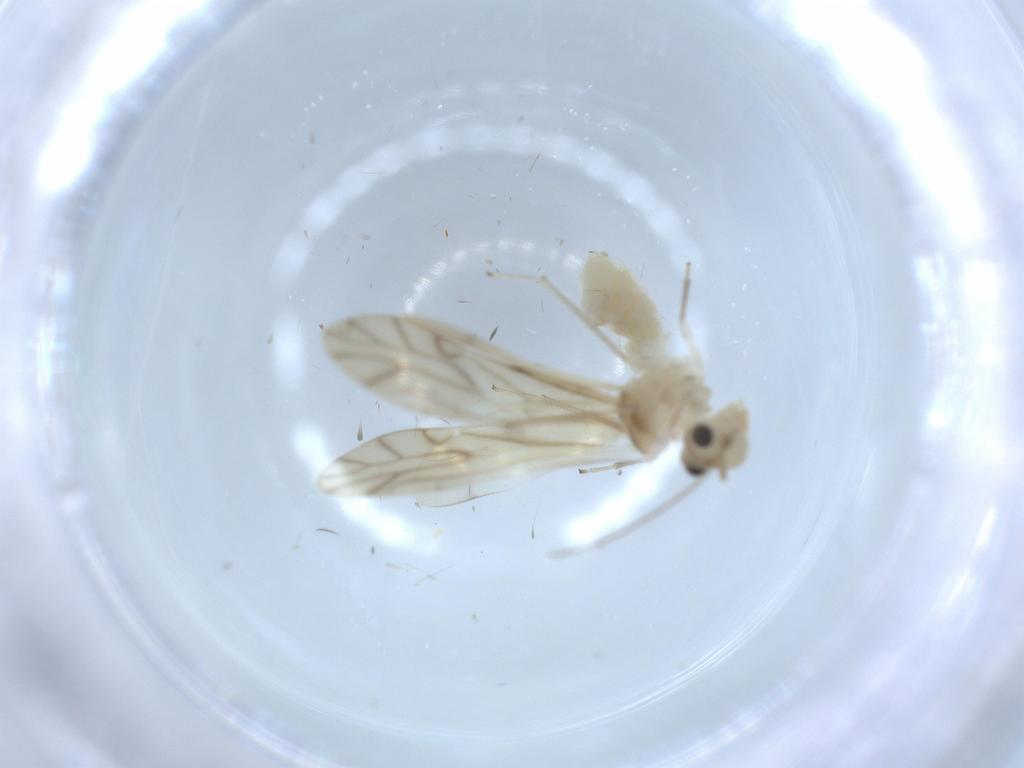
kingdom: Animalia
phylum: Arthropoda
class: Insecta
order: Psocodea
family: Caeciliusidae
